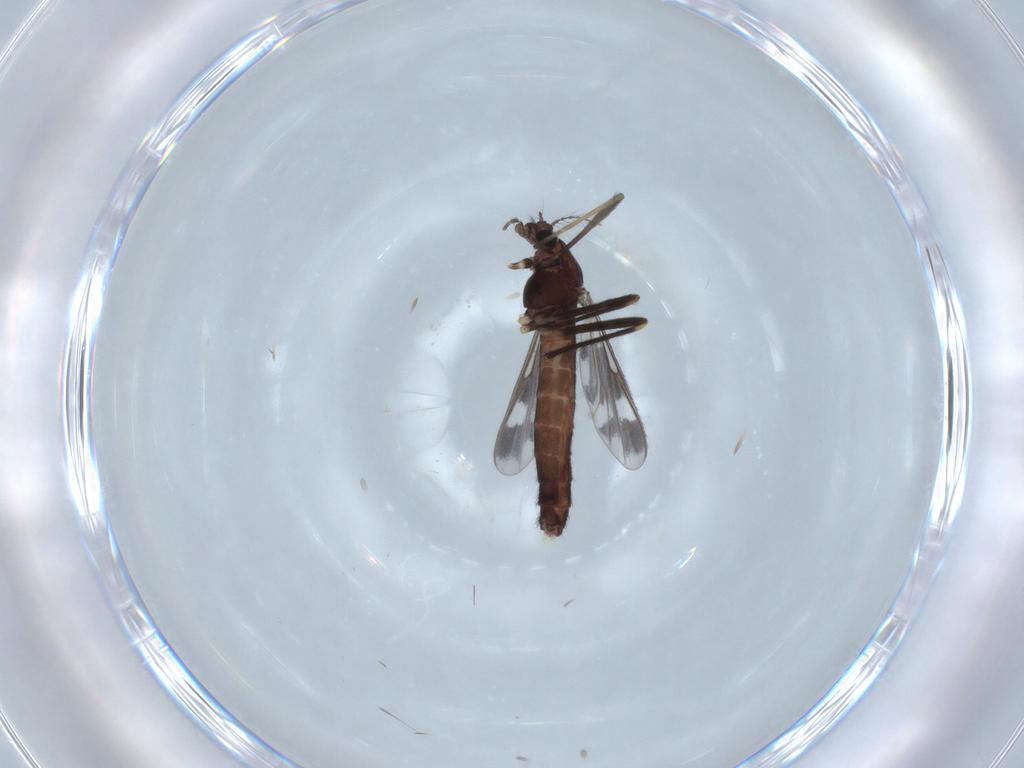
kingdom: Animalia
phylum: Arthropoda
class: Insecta
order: Diptera
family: Chironomidae
